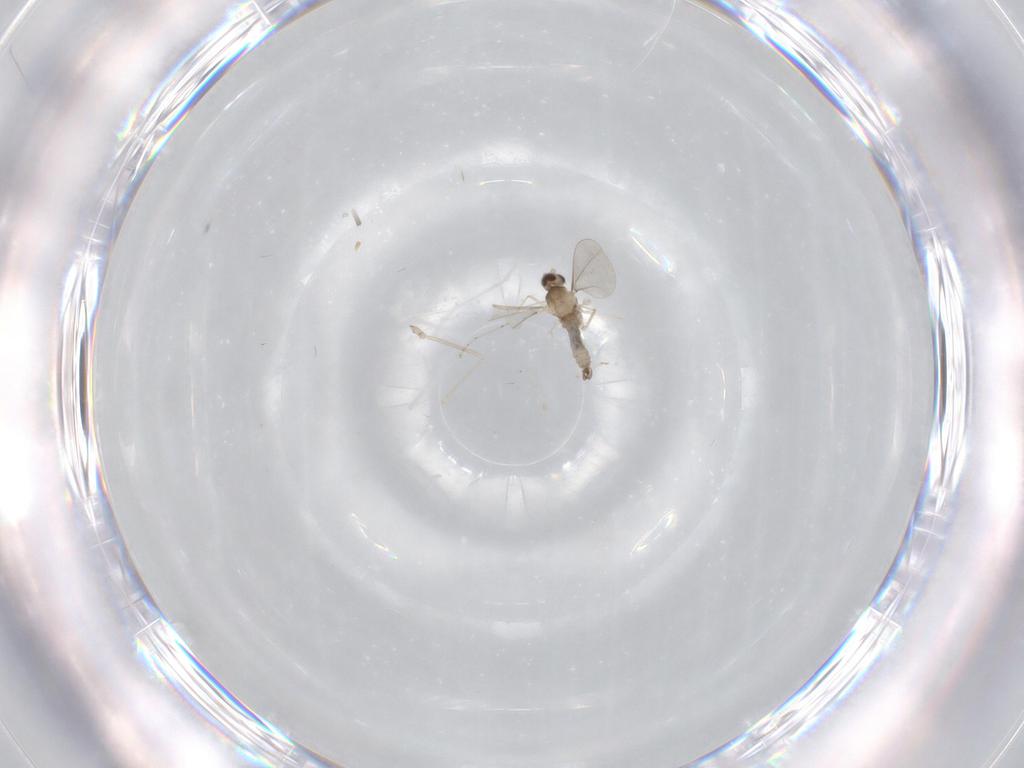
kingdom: Animalia
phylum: Arthropoda
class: Insecta
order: Diptera
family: Cecidomyiidae
